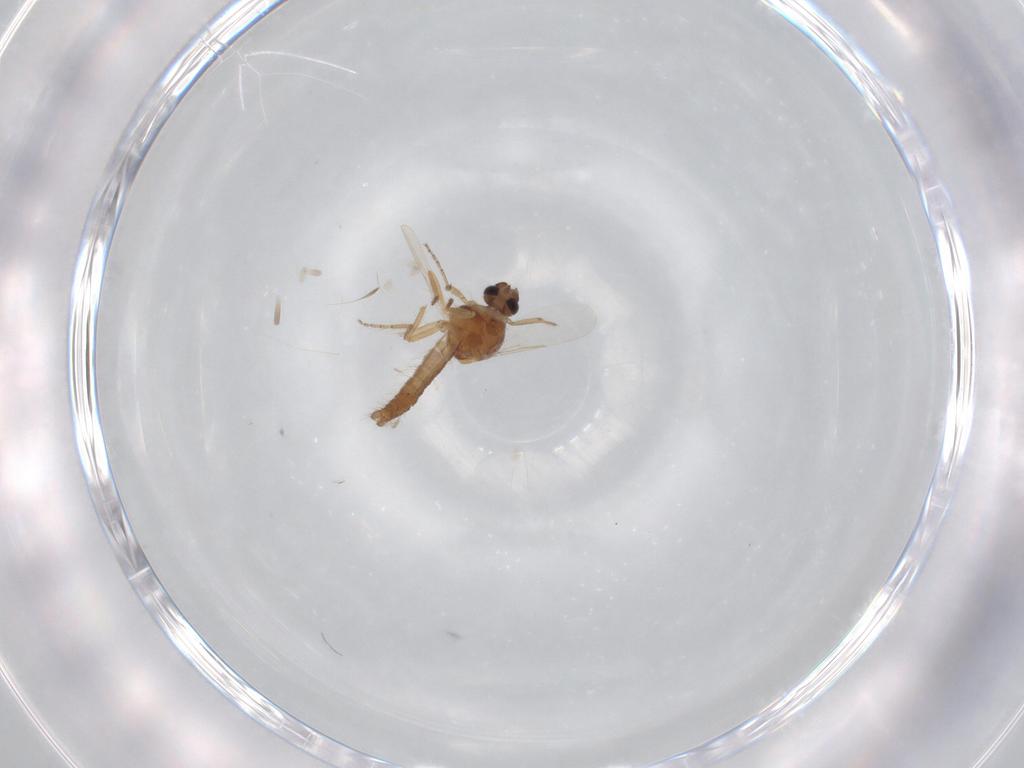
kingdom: Animalia
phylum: Arthropoda
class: Insecta
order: Diptera
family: Ceratopogonidae
